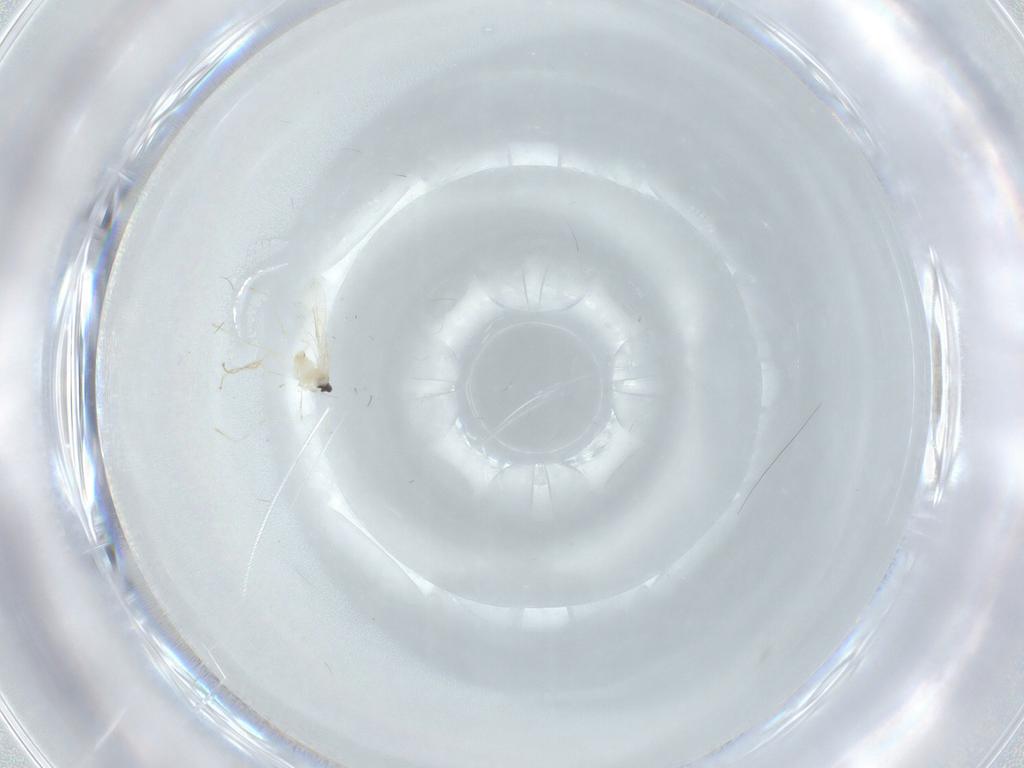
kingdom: Animalia
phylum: Arthropoda
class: Insecta
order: Diptera
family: Cecidomyiidae
